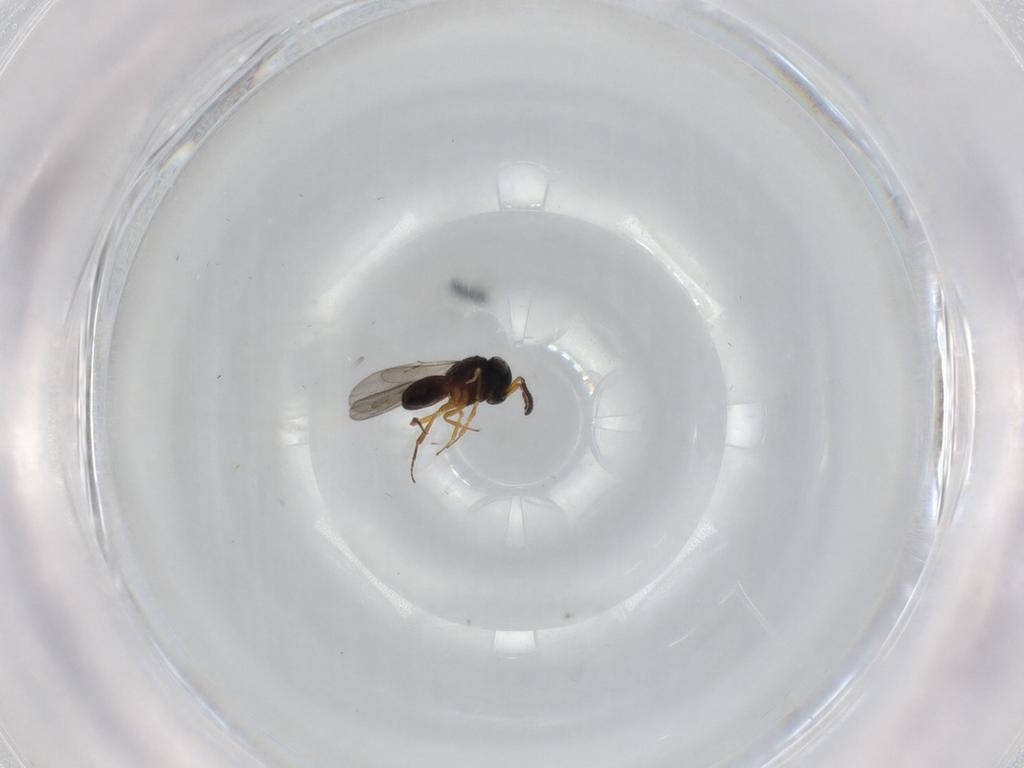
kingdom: Animalia
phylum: Arthropoda
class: Insecta
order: Hymenoptera
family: Scelionidae
